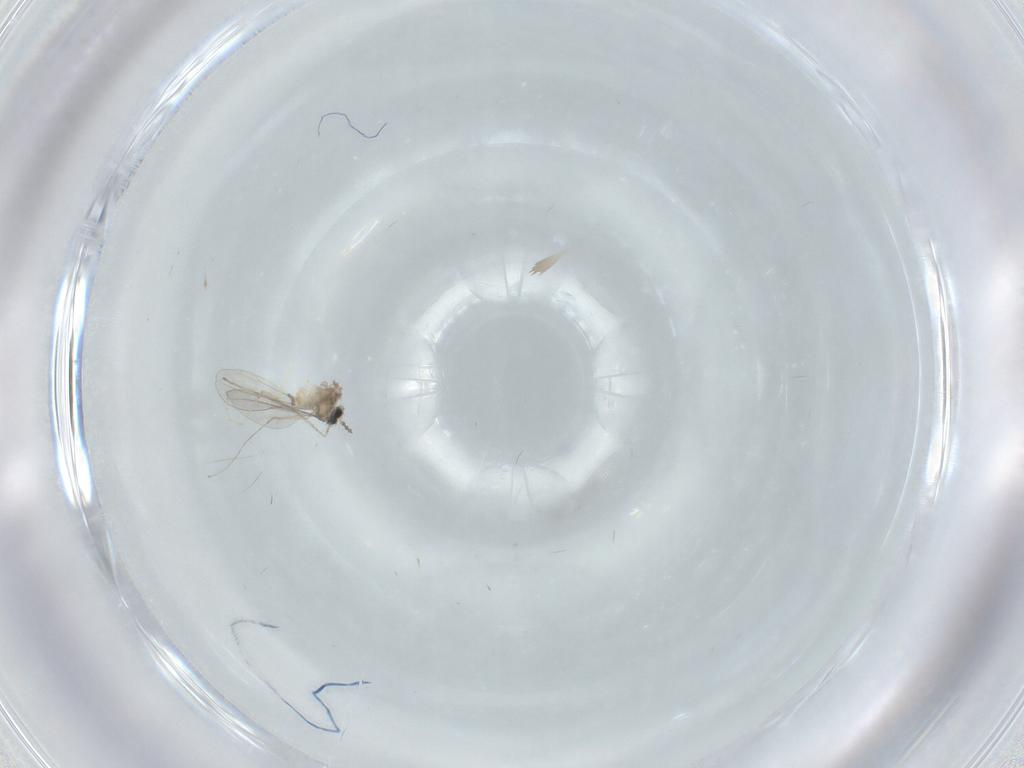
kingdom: Animalia
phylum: Arthropoda
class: Insecta
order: Diptera
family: Cecidomyiidae
